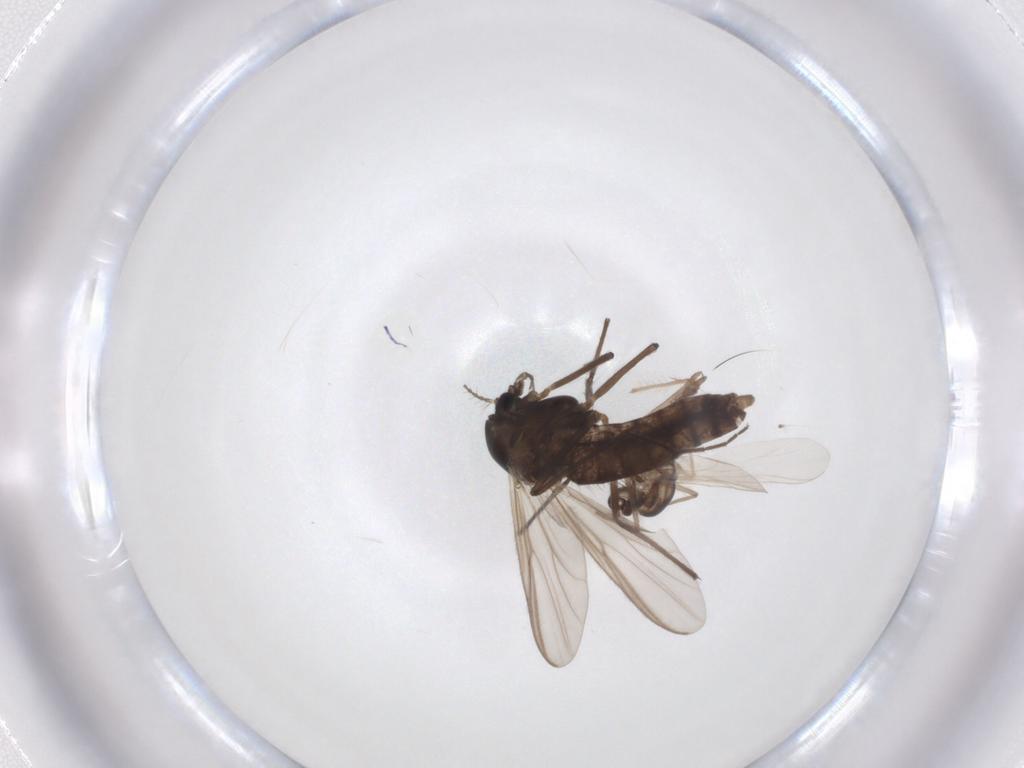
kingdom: Animalia
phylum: Arthropoda
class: Insecta
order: Diptera
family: Chironomidae
